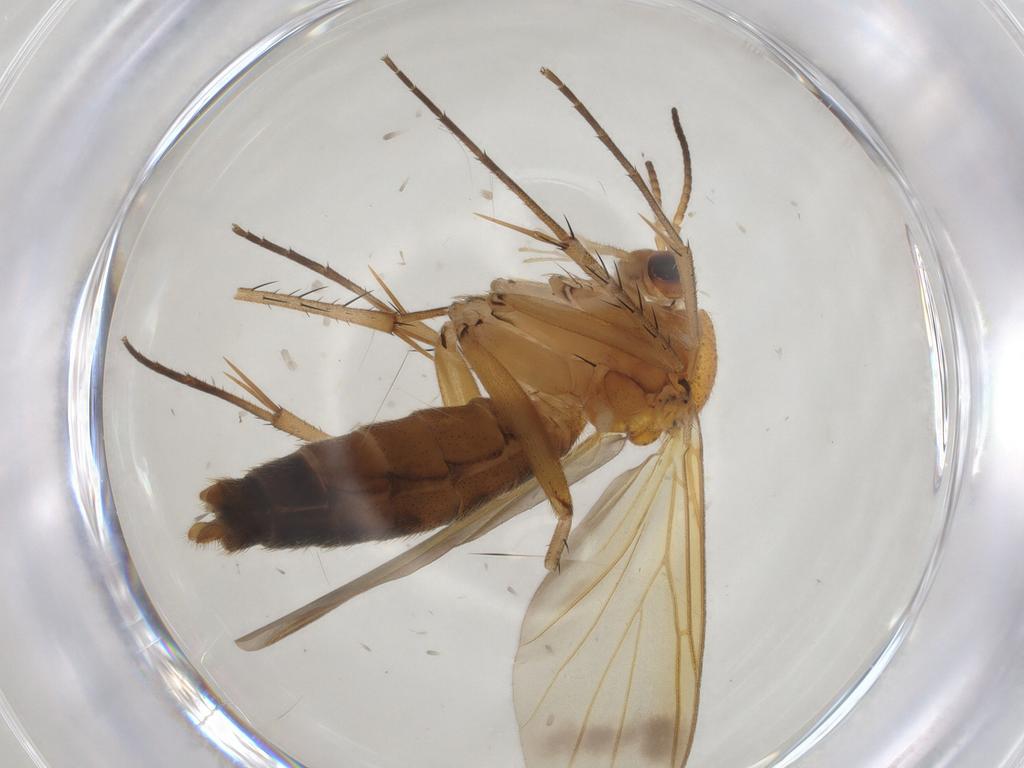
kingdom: Animalia
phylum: Arthropoda
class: Insecta
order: Diptera
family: Mycetophilidae
